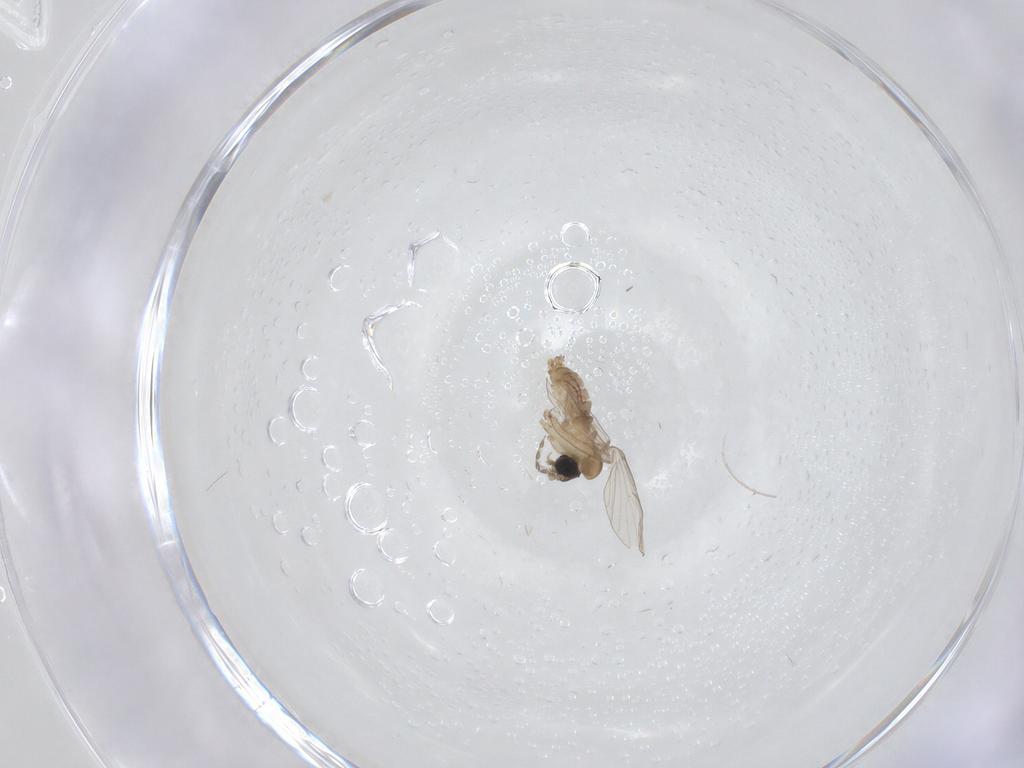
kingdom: Animalia
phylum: Arthropoda
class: Insecta
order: Diptera
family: Psychodidae
